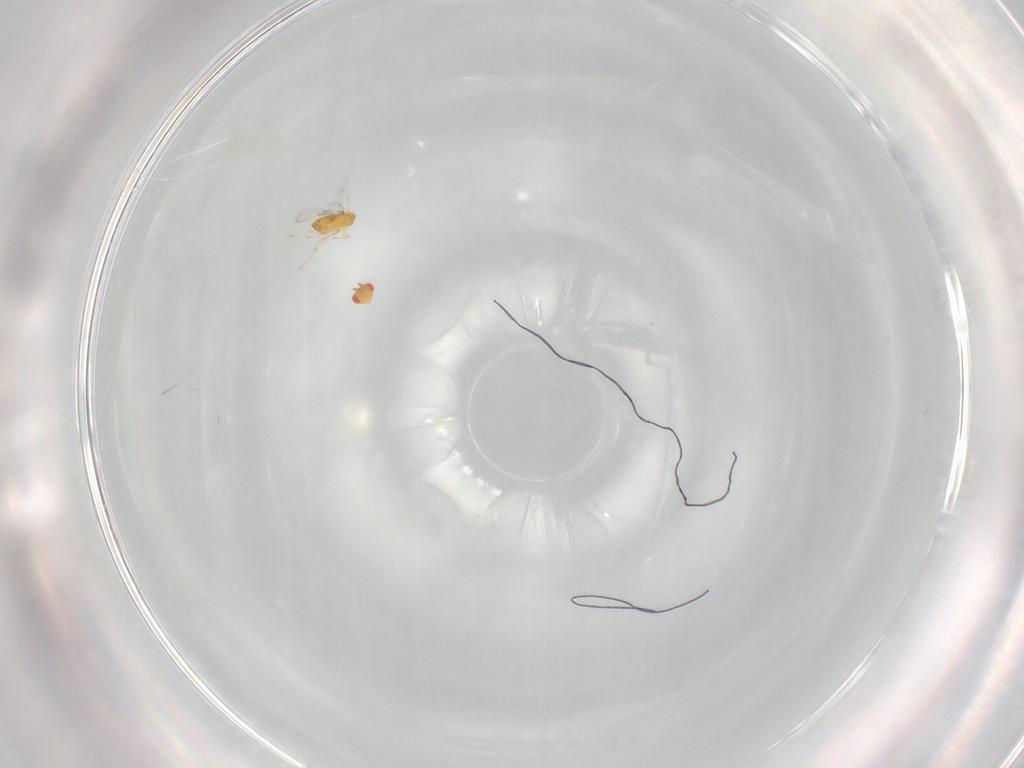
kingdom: Animalia
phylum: Arthropoda
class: Insecta
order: Hymenoptera
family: Trichogrammatidae
